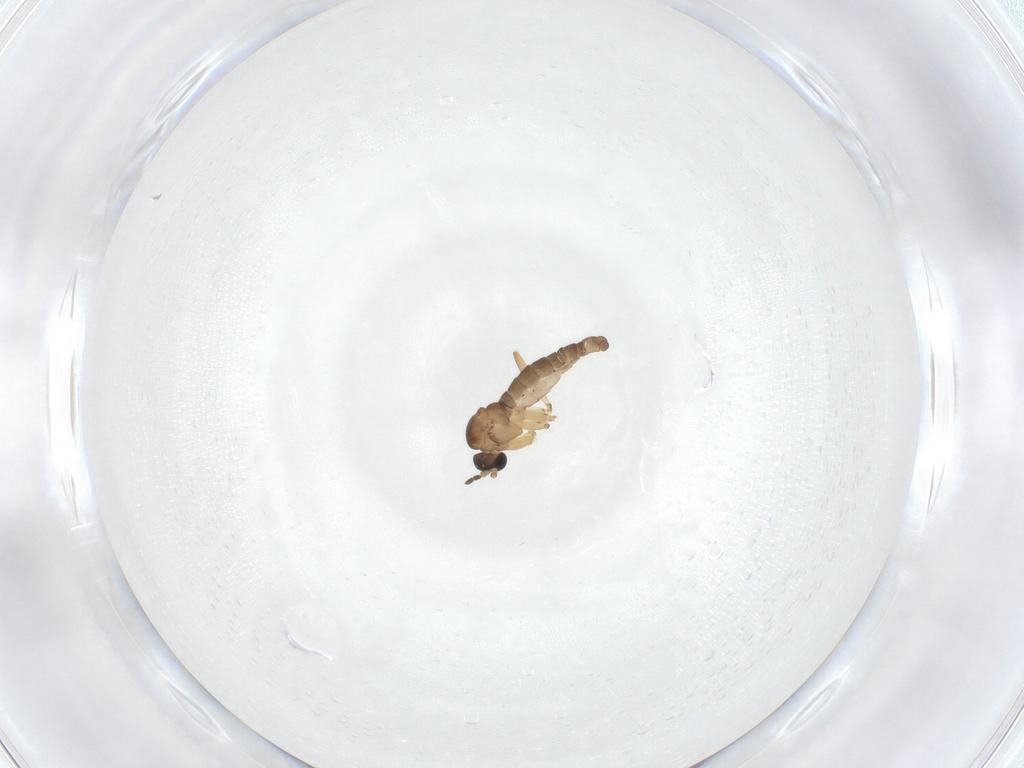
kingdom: Animalia
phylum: Arthropoda
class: Insecta
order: Diptera
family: Sciaridae
